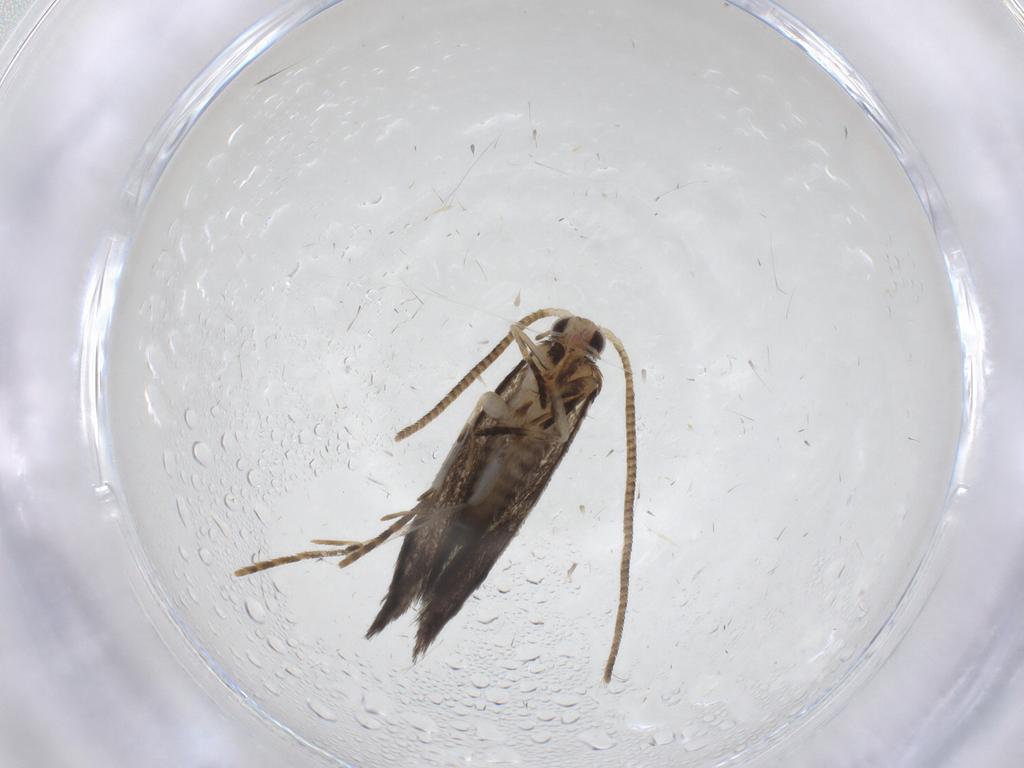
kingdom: Animalia
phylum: Arthropoda
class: Insecta
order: Lepidoptera
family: Tineidae
